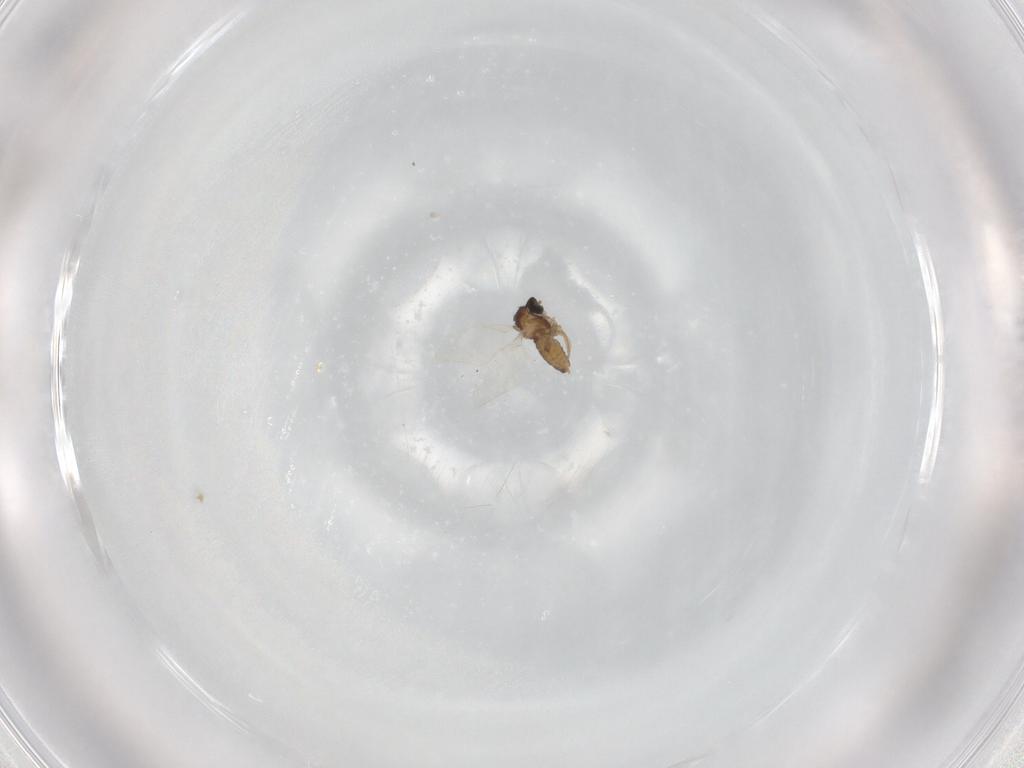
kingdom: Animalia
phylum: Arthropoda
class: Insecta
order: Diptera
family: Cecidomyiidae
